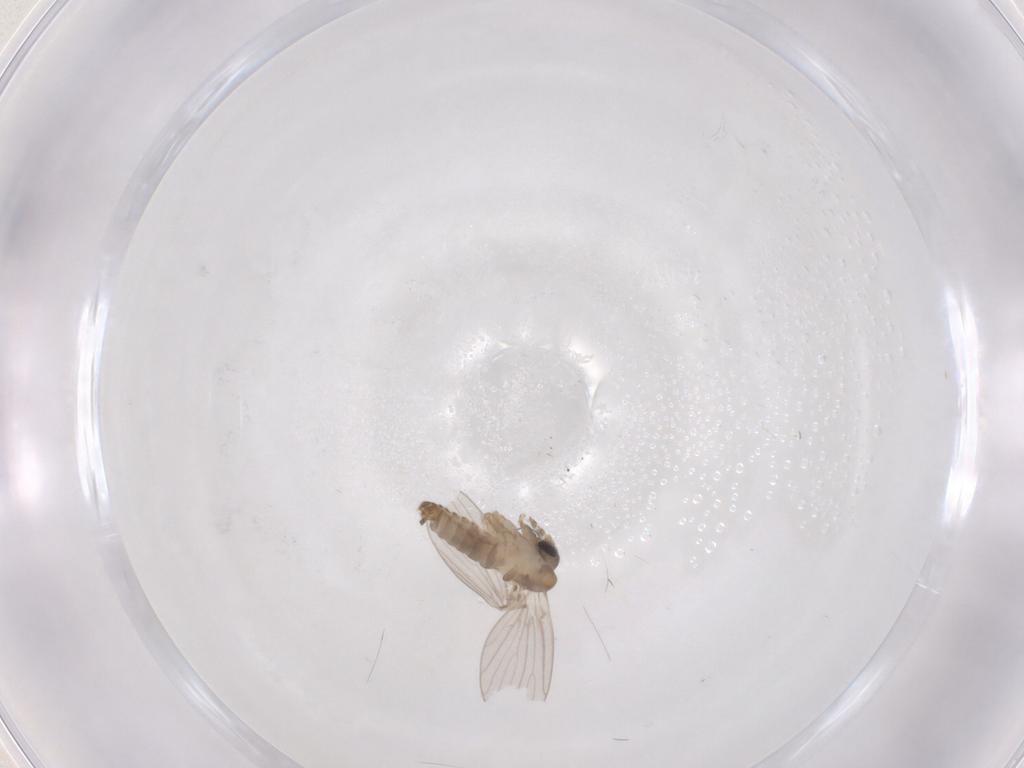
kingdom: Animalia
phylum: Arthropoda
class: Insecta
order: Diptera
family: Psychodidae
